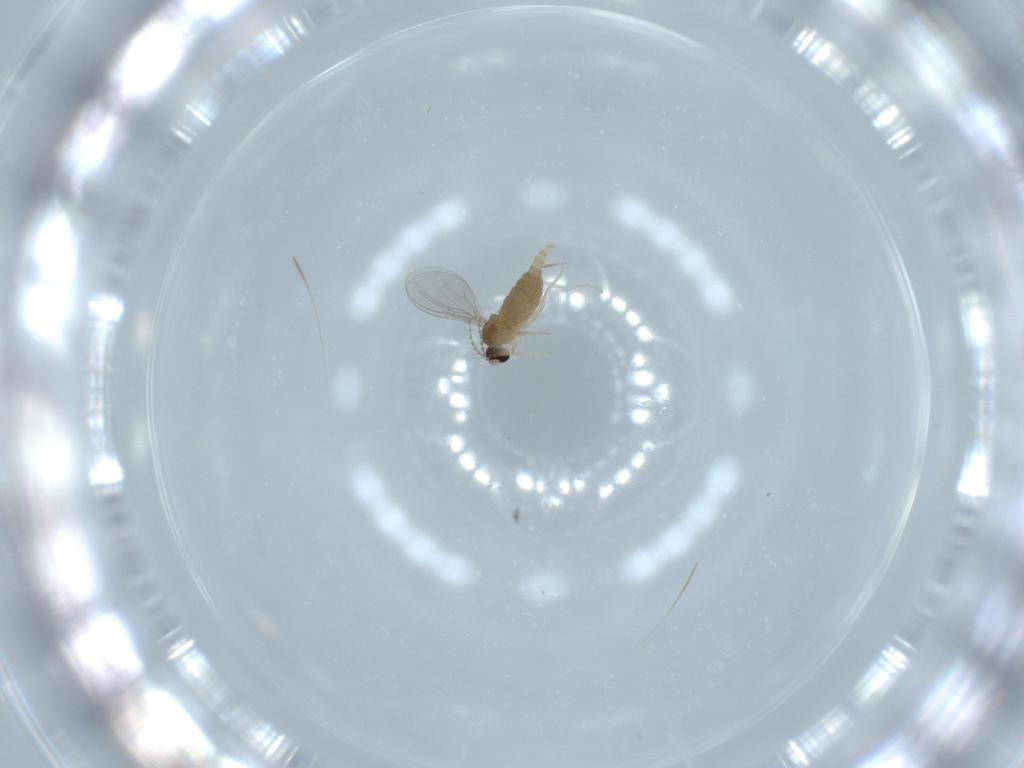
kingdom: Animalia
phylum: Arthropoda
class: Insecta
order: Diptera
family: Cecidomyiidae
